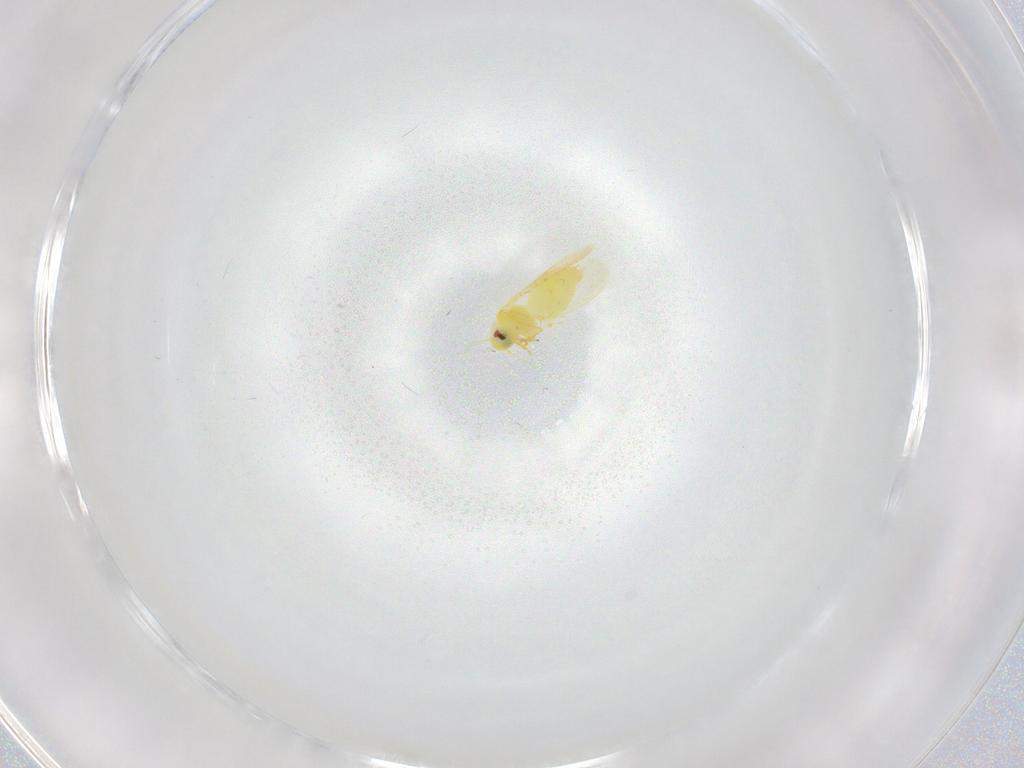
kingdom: Animalia
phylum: Arthropoda
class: Insecta
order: Hemiptera
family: Aleyrodidae
